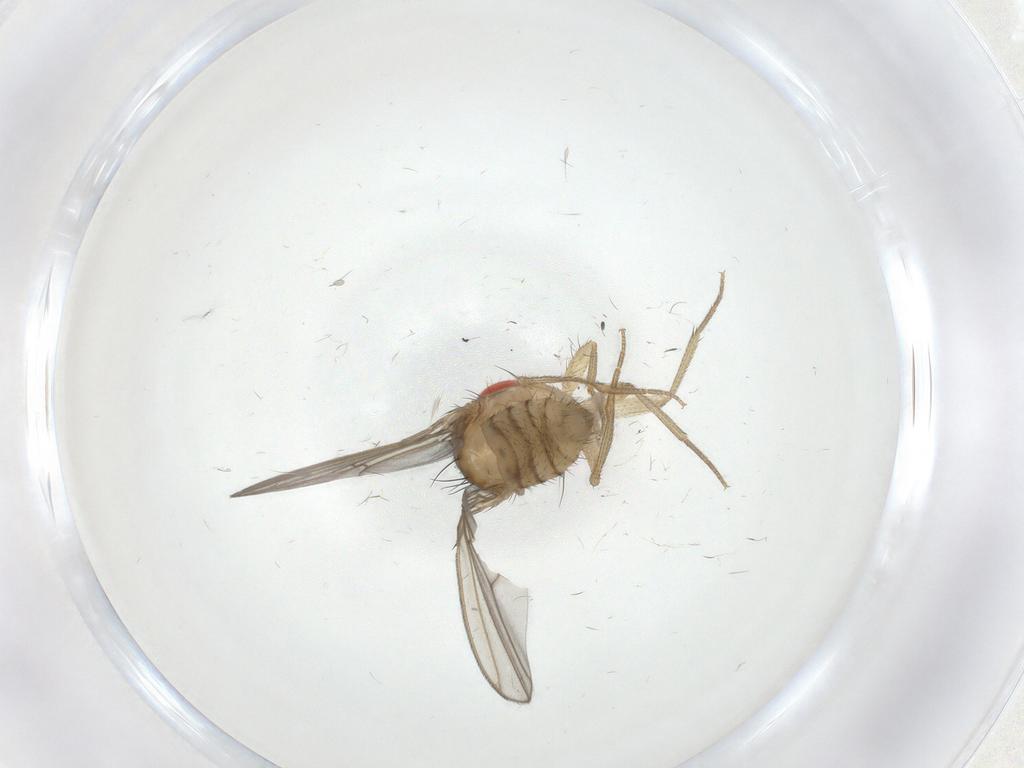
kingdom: Animalia
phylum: Arthropoda
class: Insecta
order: Diptera
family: Drosophilidae
